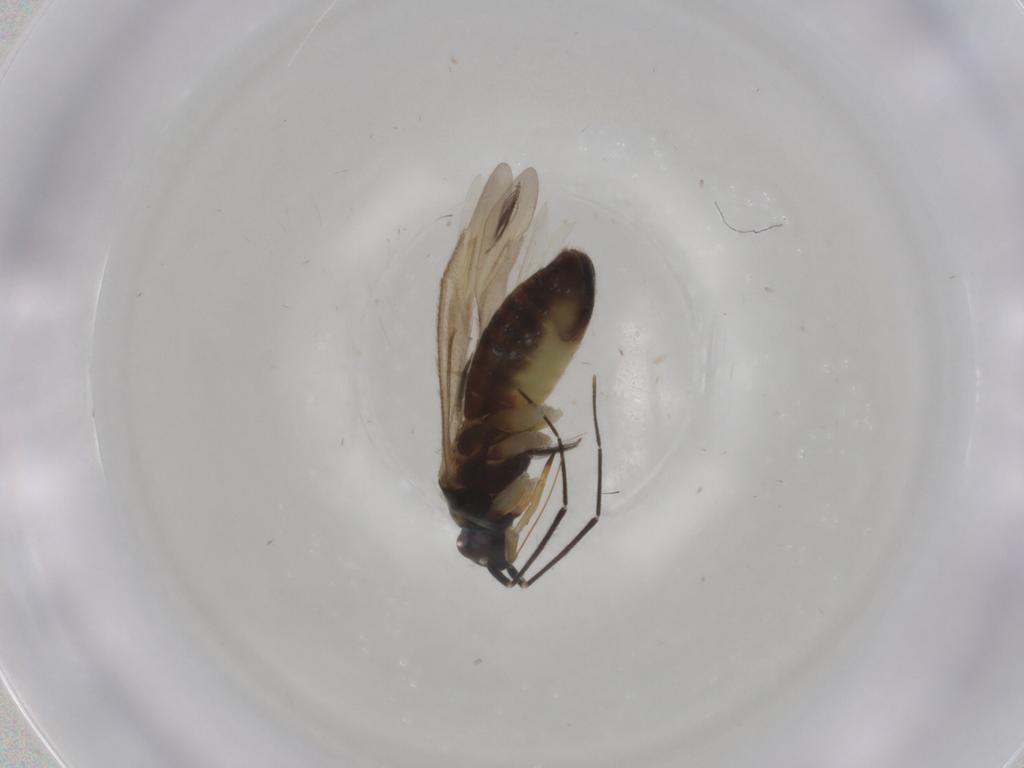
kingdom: Animalia
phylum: Arthropoda
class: Insecta
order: Hemiptera
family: Miridae
